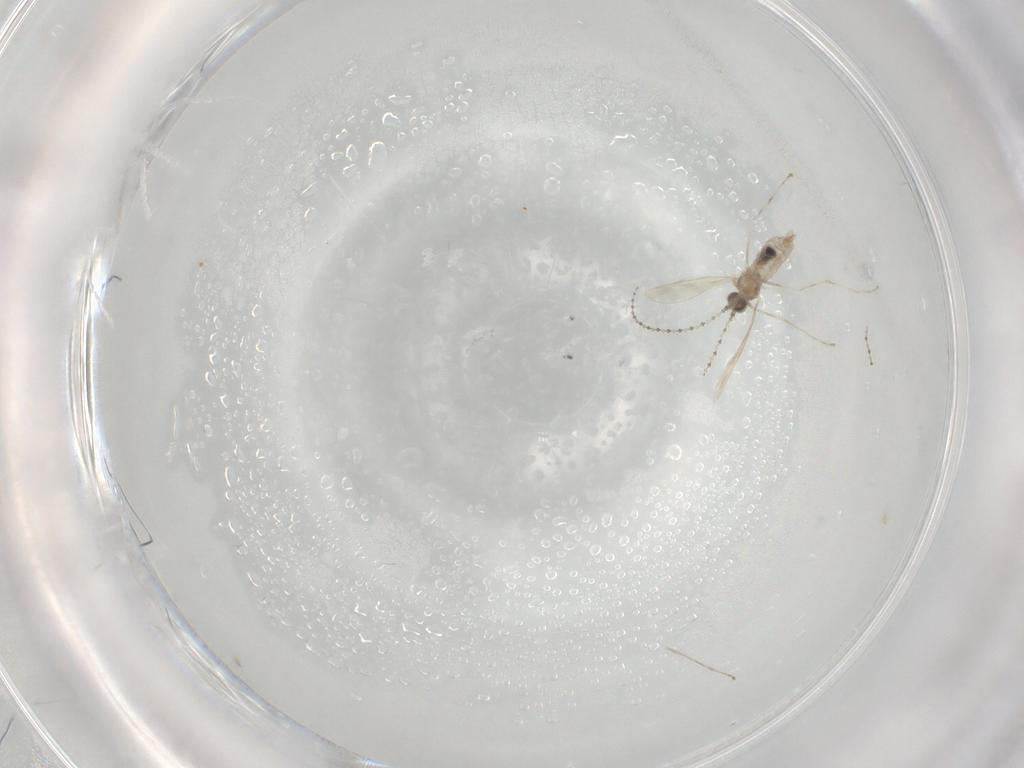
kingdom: Animalia
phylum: Arthropoda
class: Insecta
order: Diptera
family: Cecidomyiidae
